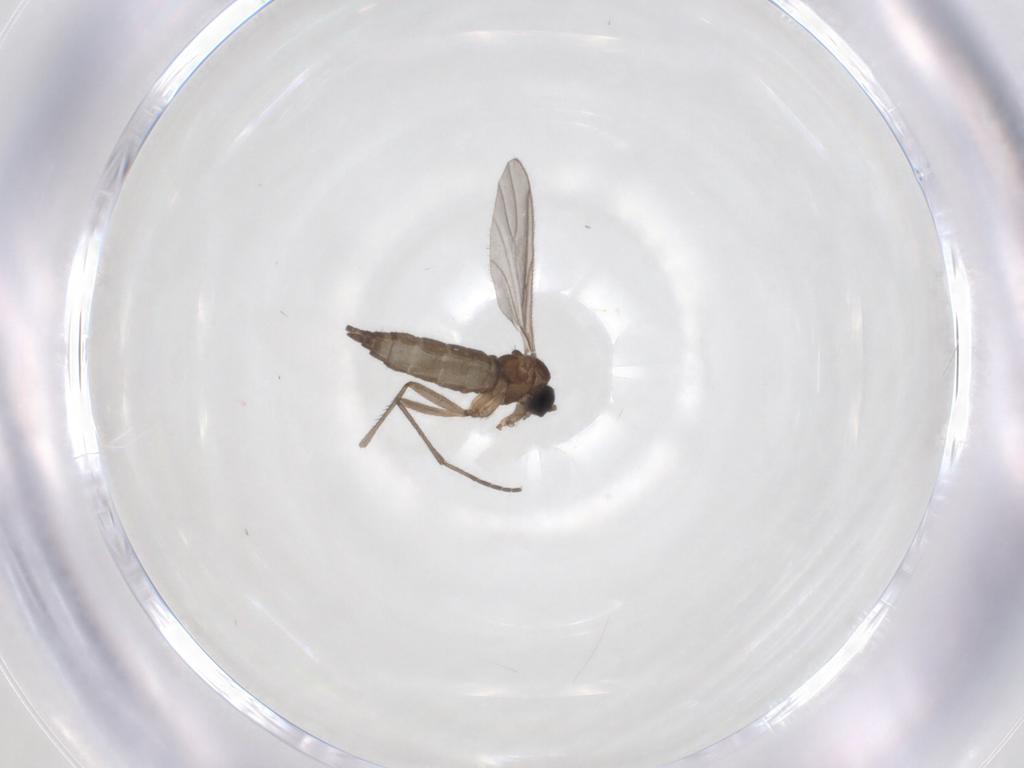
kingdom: Animalia
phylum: Arthropoda
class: Insecta
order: Diptera
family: Sciaridae
